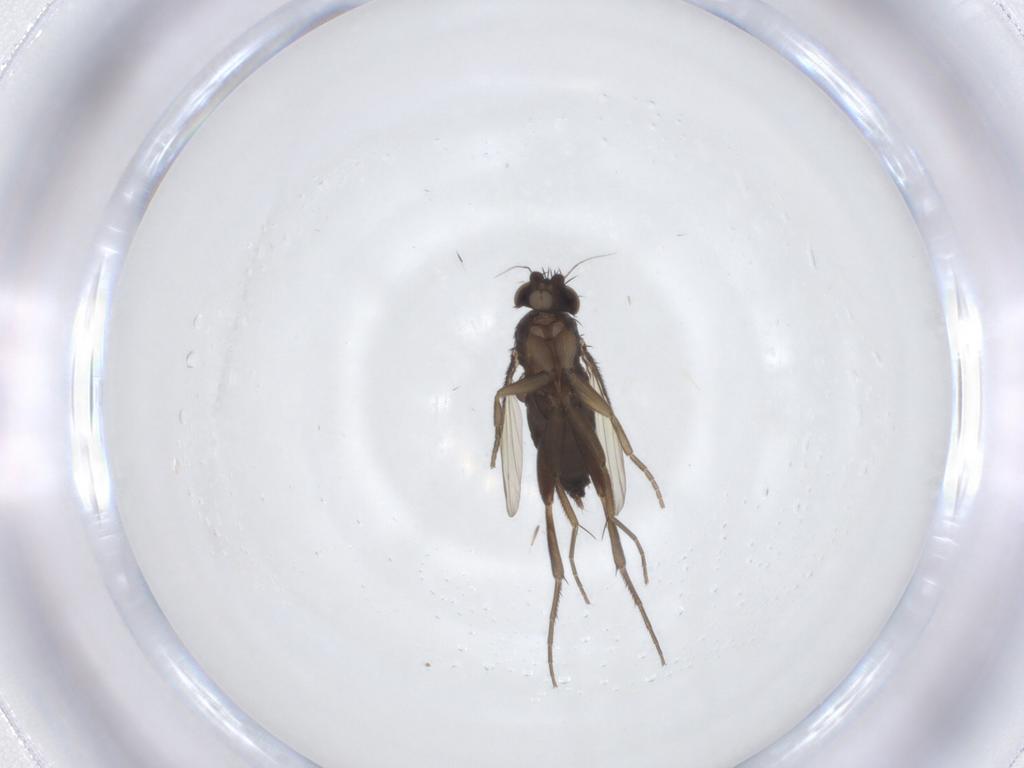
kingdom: Animalia
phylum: Arthropoda
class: Insecta
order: Diptera
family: Phoridae
